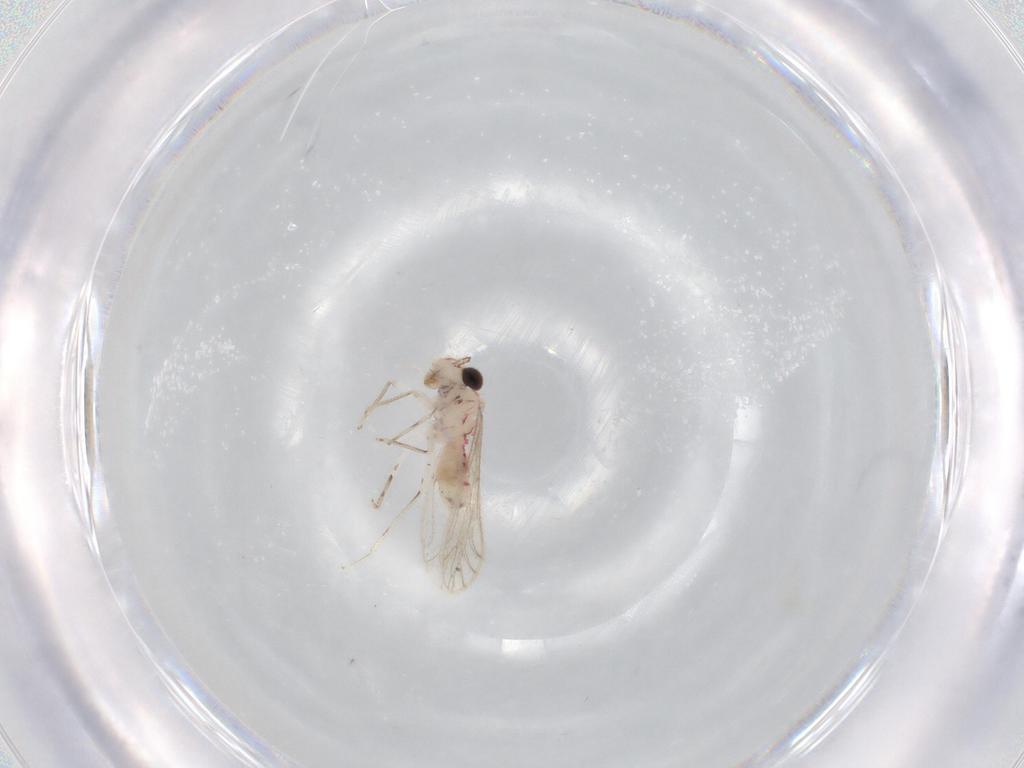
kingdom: Animalia
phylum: Arthropoda
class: Insecta
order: Psocodea
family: Caeciliusidae
